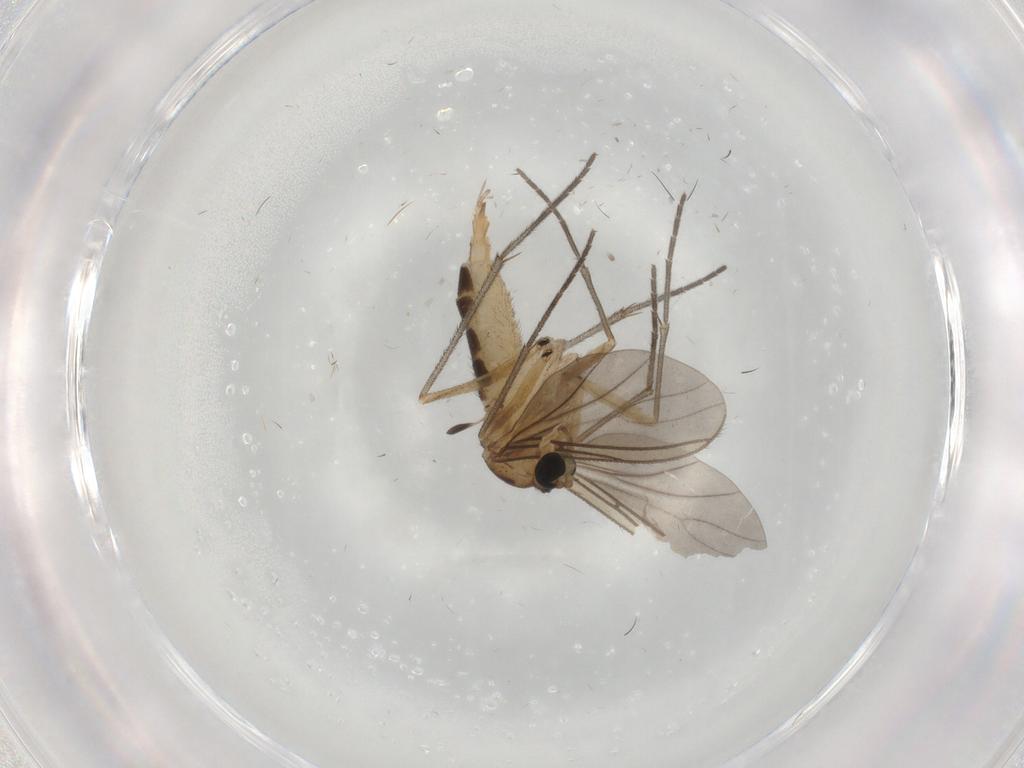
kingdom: Animalia
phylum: Arthropoda
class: Insecta
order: Diptera
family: Sciaridae
